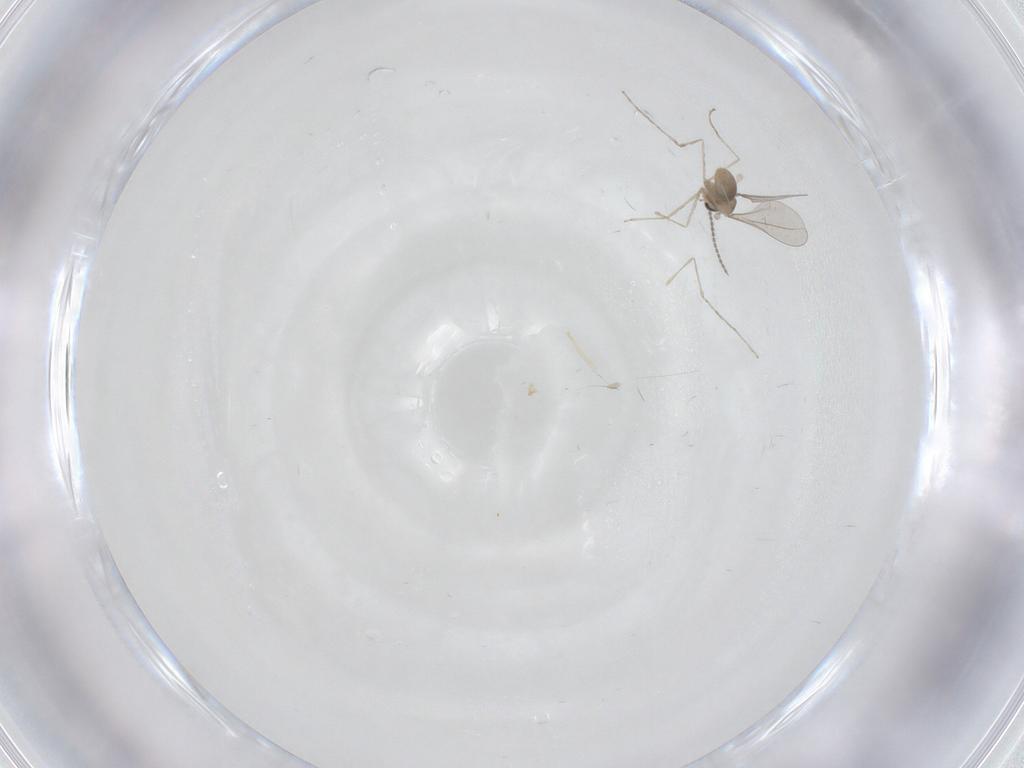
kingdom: Animalia
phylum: Arthropoda
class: Insecta
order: Diptera
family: Cecidomyiidae
